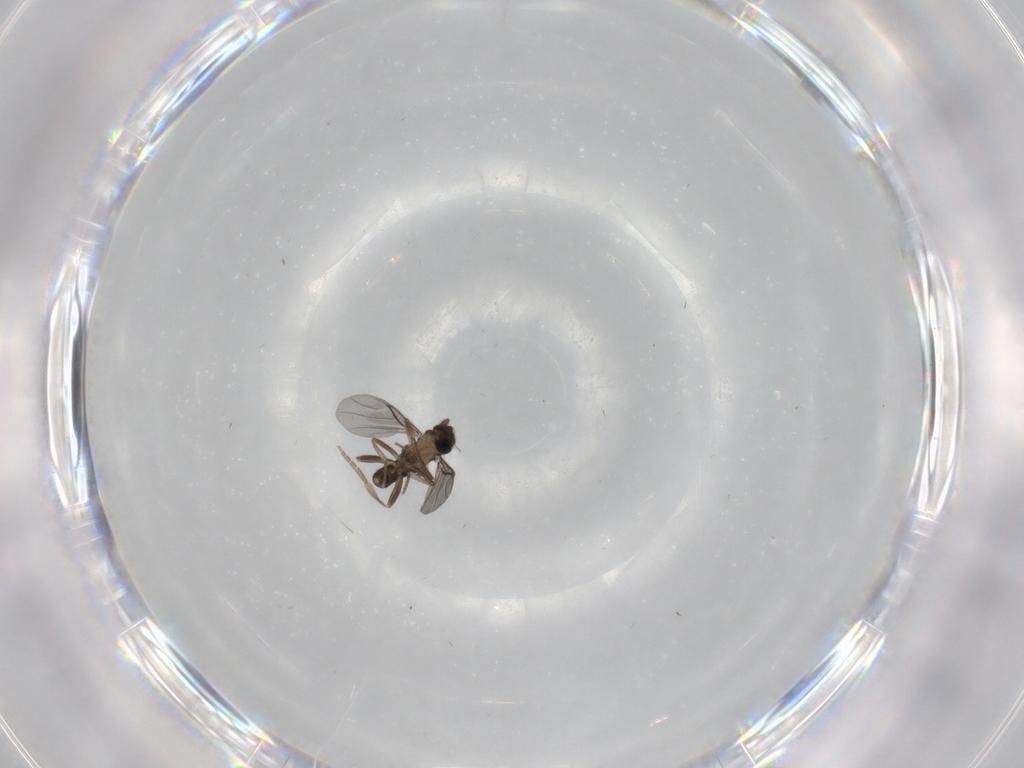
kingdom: Animalia
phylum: Arthropoda
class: Insecta
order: Diptera
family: Agromyzidae
